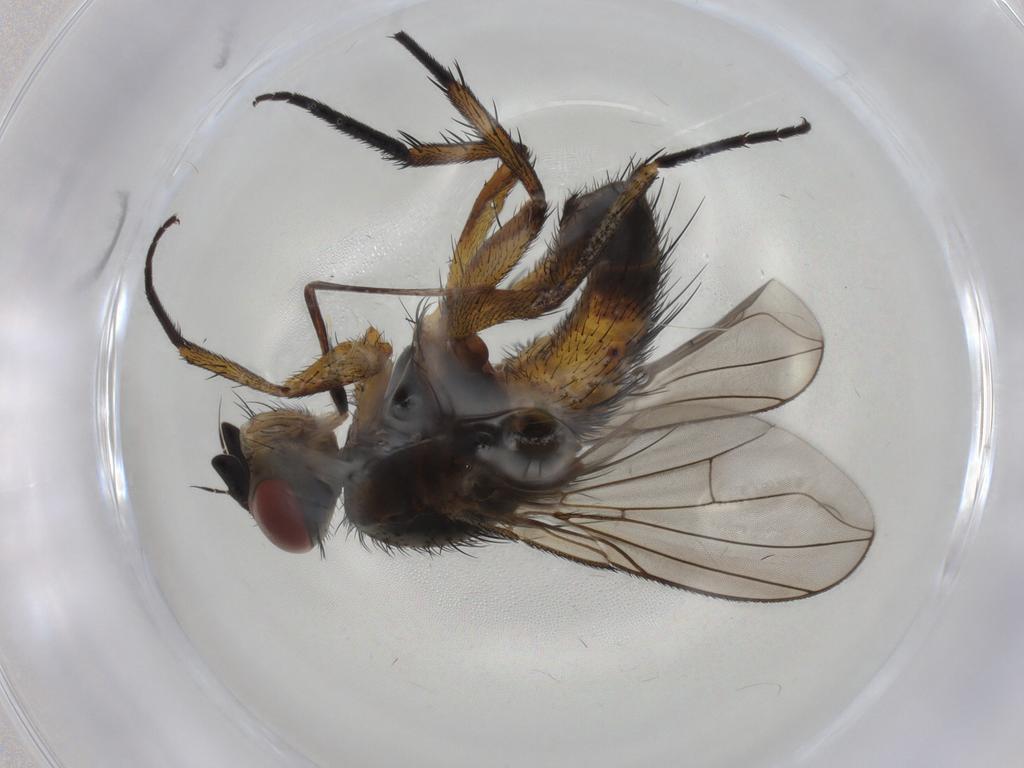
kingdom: Animalia
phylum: Arthropoda
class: Insecta
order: Diptera
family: Tachinidae
